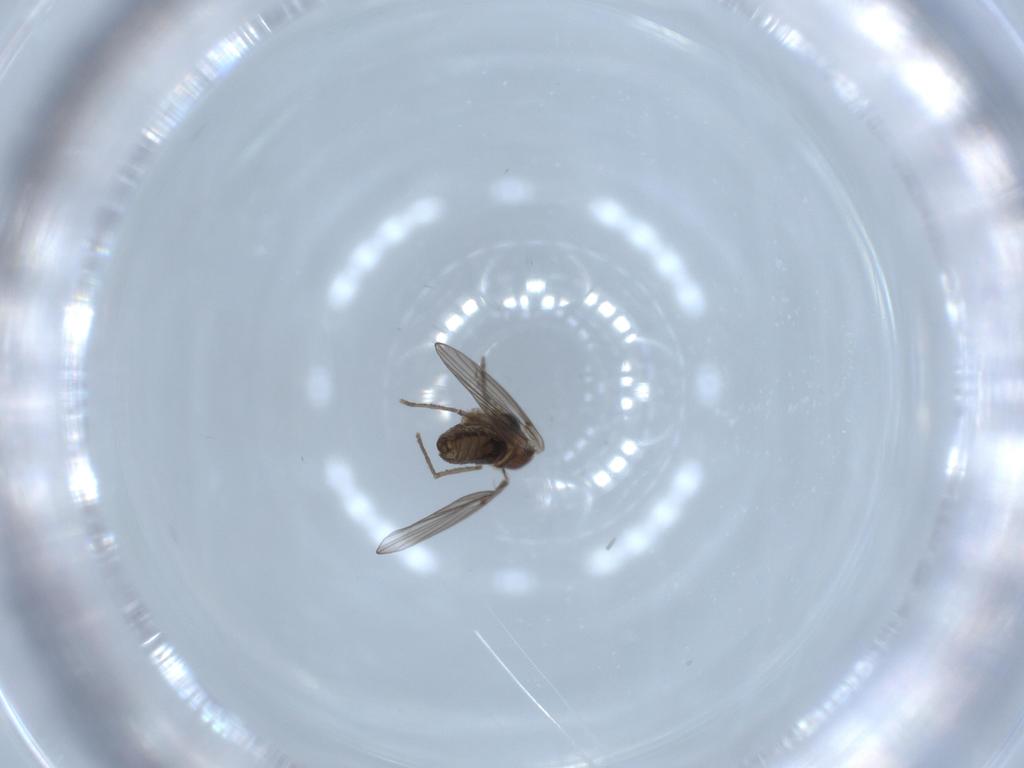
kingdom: Animalia
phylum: Arthropoda
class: Insecta
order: Diptera
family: Psychodidae
